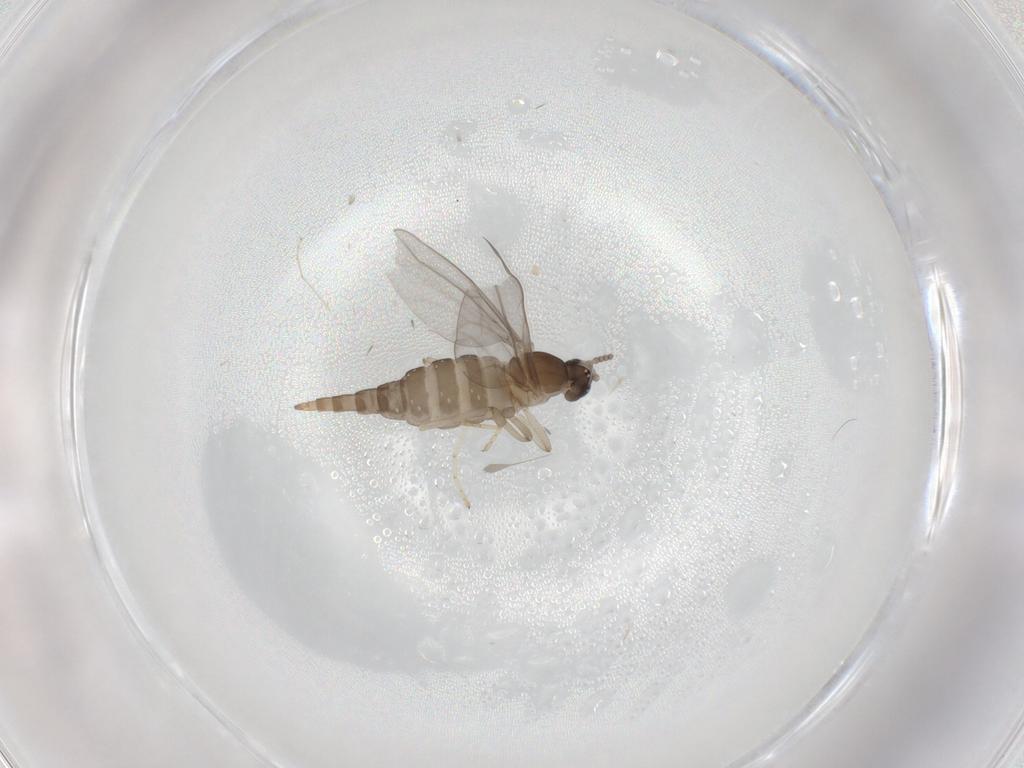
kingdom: Animalia
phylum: Arthropoda
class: Insecta
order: Diptera
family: Cecidomyiidae
